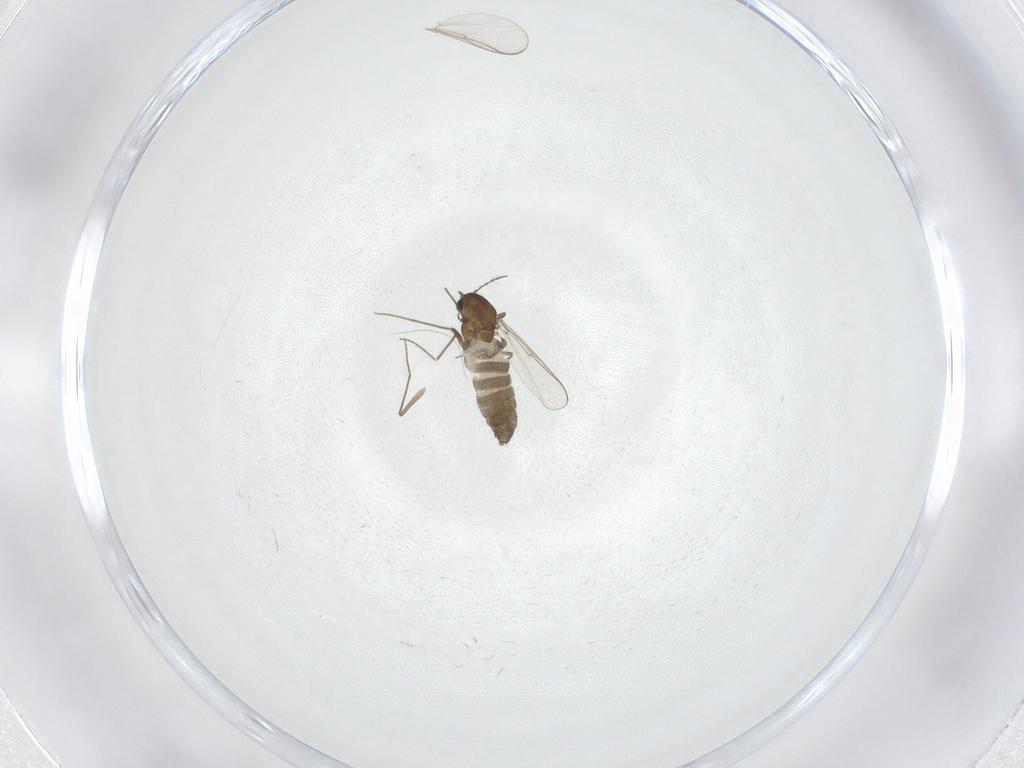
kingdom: Animalia
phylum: Arthropoda
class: Insecta
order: Diptera
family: Chironomidae
